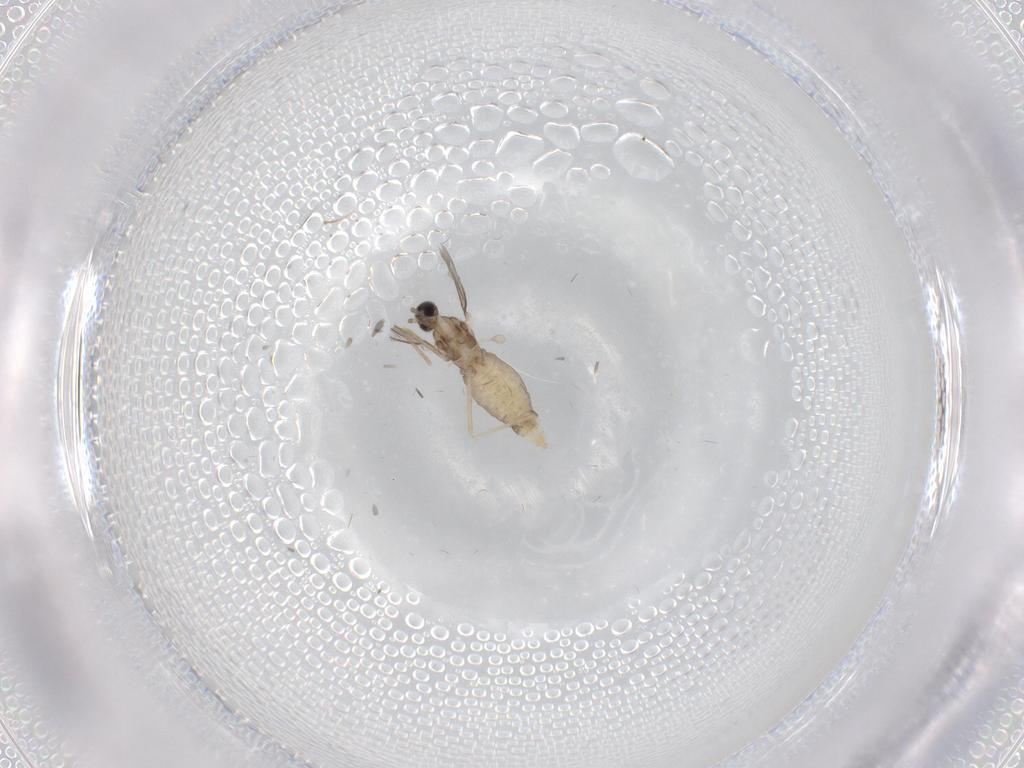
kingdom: Animalia
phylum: Arthropoda
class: Insecta
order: Diptera
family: Cecidomyiidae
